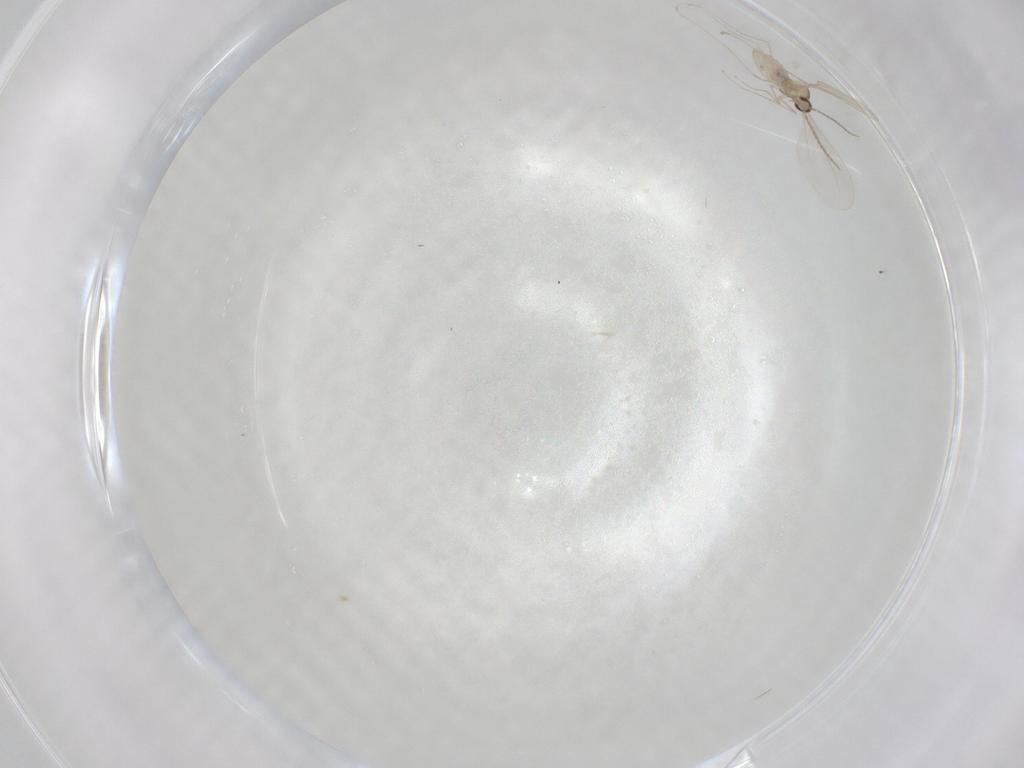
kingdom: Animalia
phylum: Arthropoda
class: Insecta
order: Diptera
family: Cecidomyiidae
